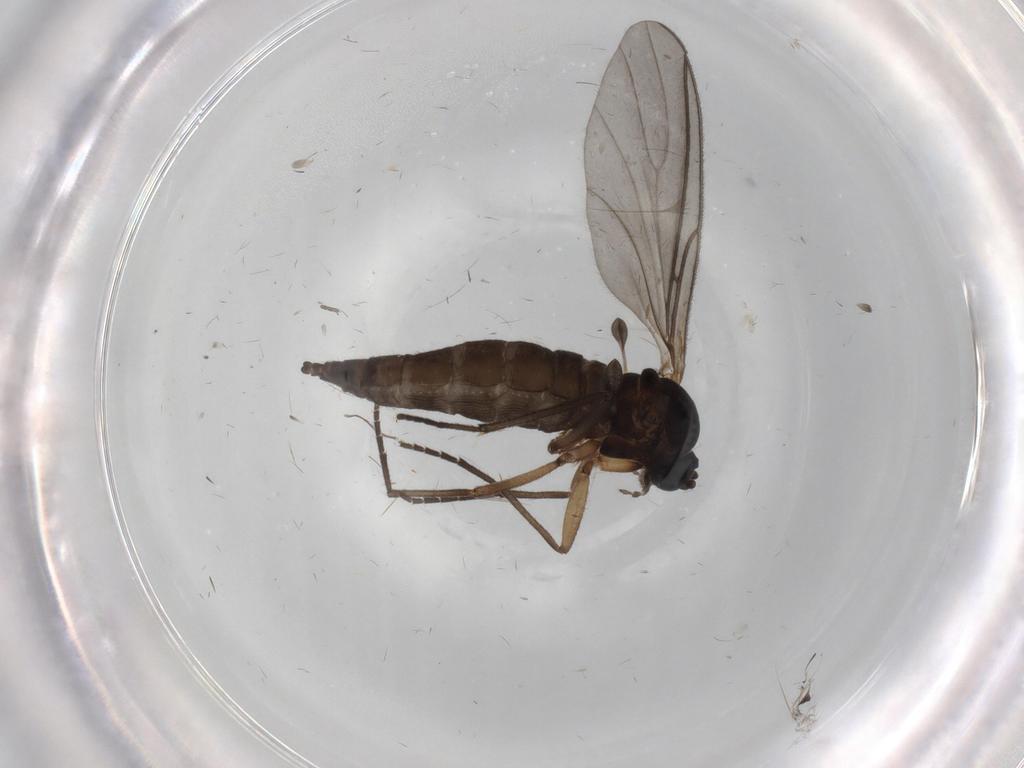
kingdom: Animalia
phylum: Arthropoda
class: Insecta
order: Diptera
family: Sciaridae
